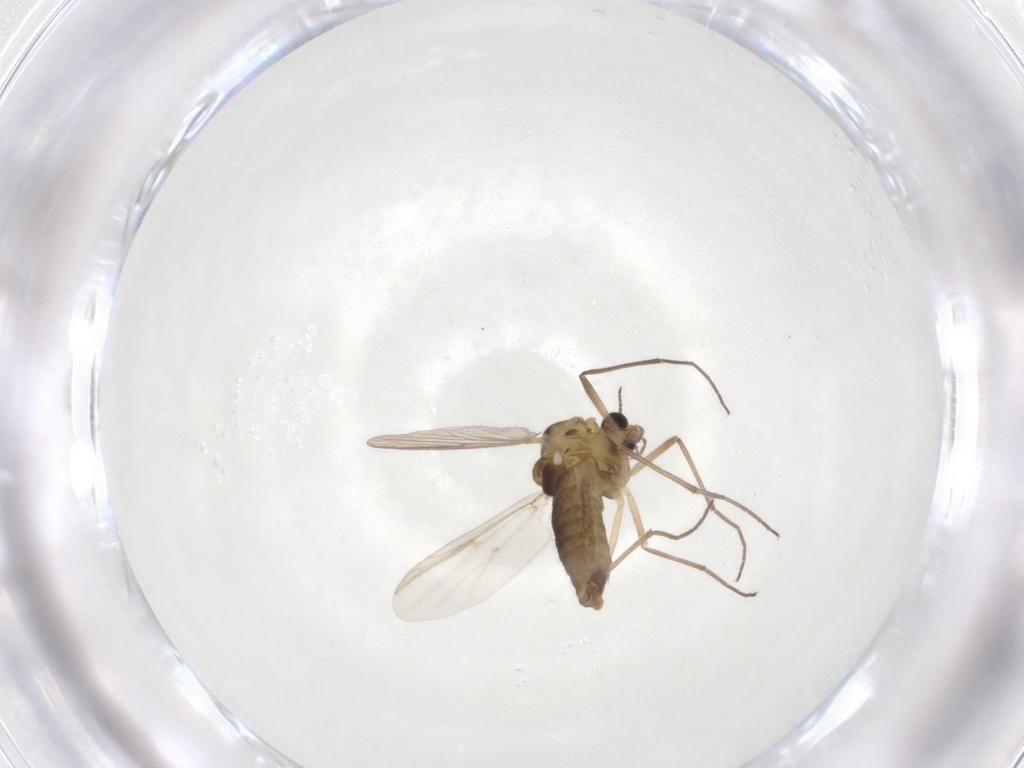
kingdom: Animalia
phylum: Arthropoda
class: Insecta
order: Diptera
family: Chironomidae
